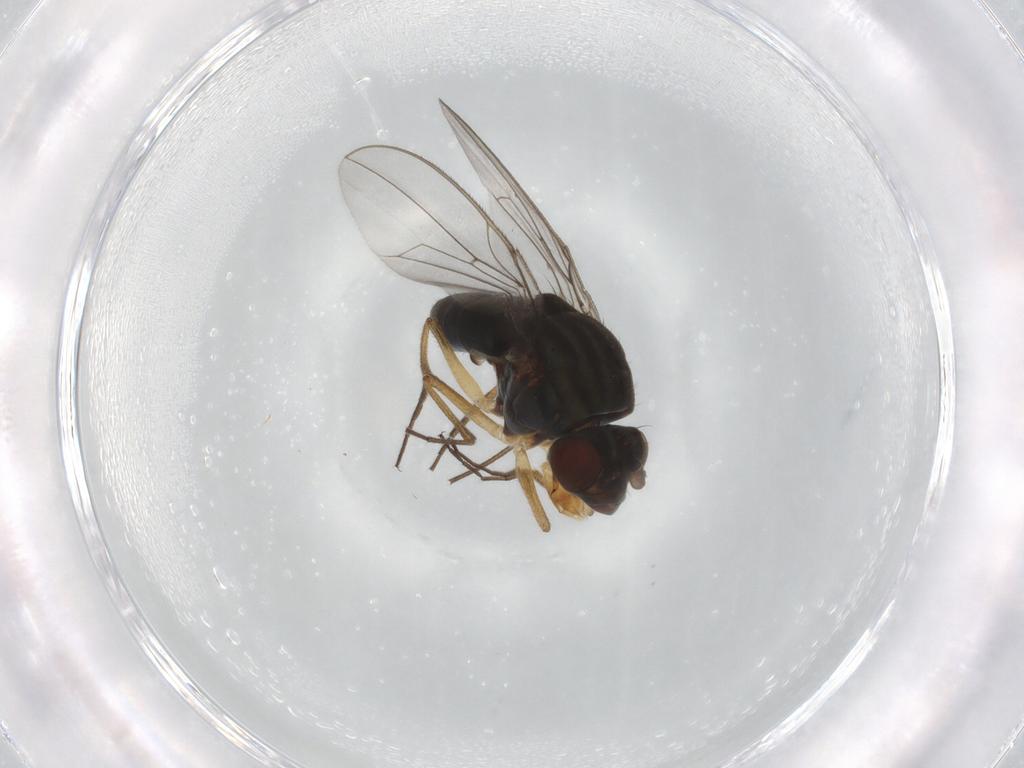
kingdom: Animalia
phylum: Arthropoda
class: Insecta
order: Diptera
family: Ephydridae
